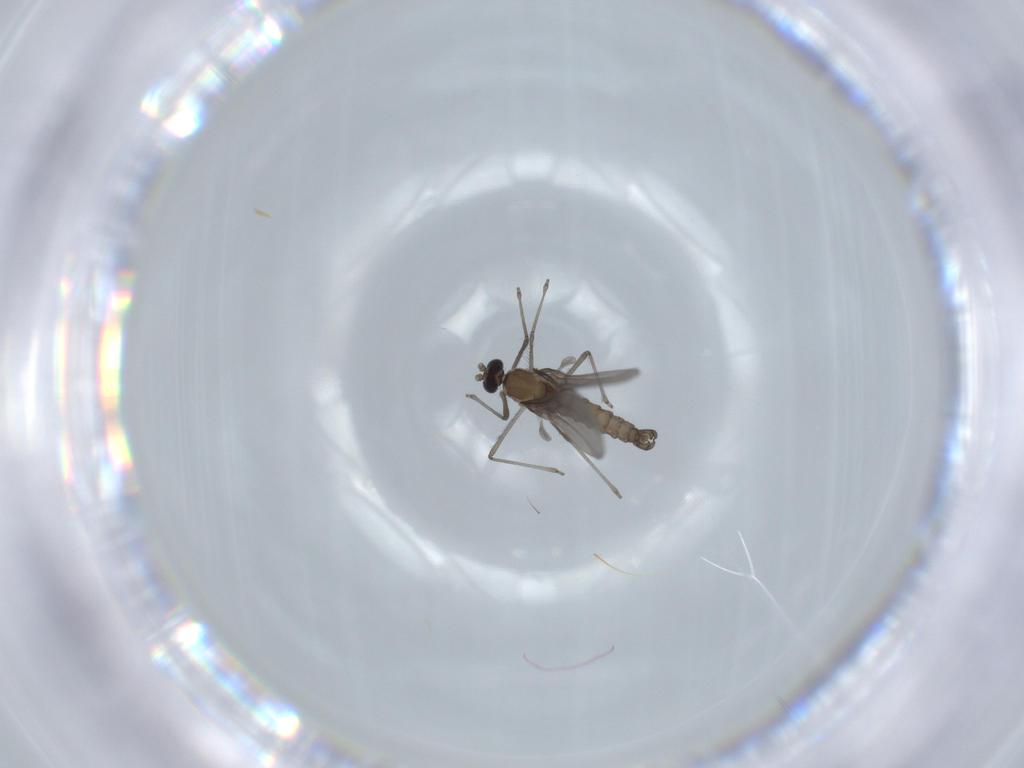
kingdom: Animalia
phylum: Arthropoda
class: Insecta
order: Diptera
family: Cecidomyiidae
